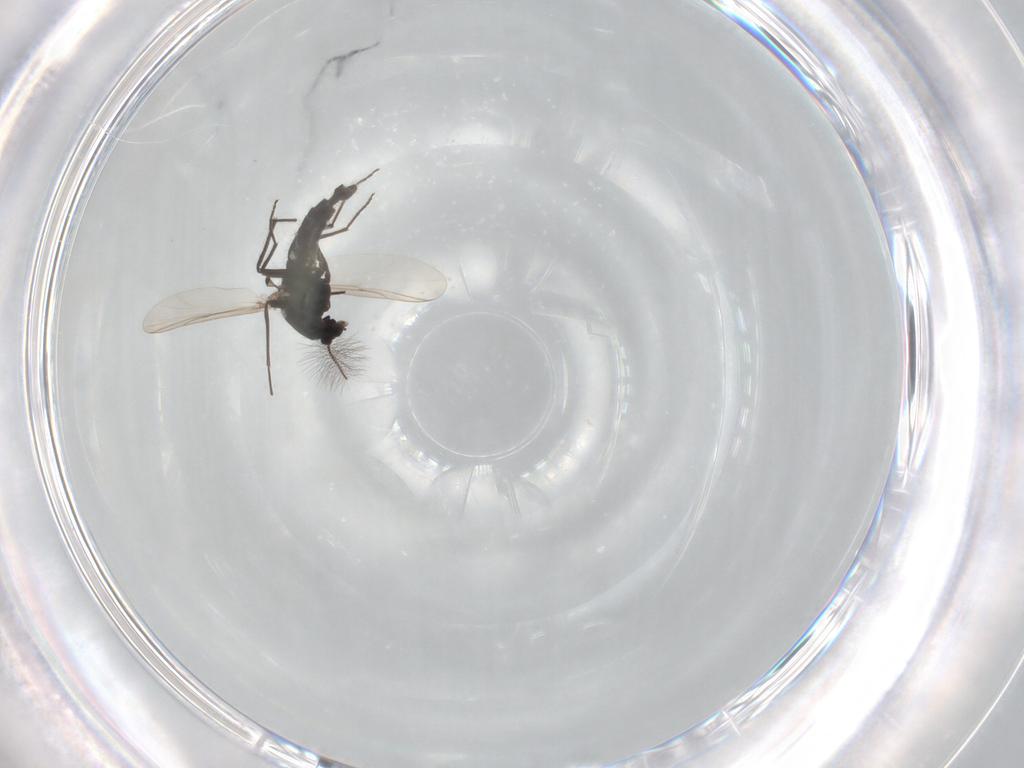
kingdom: Animalia
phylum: Arthropoda
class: Insecta
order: Diptera
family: Chironomidae
